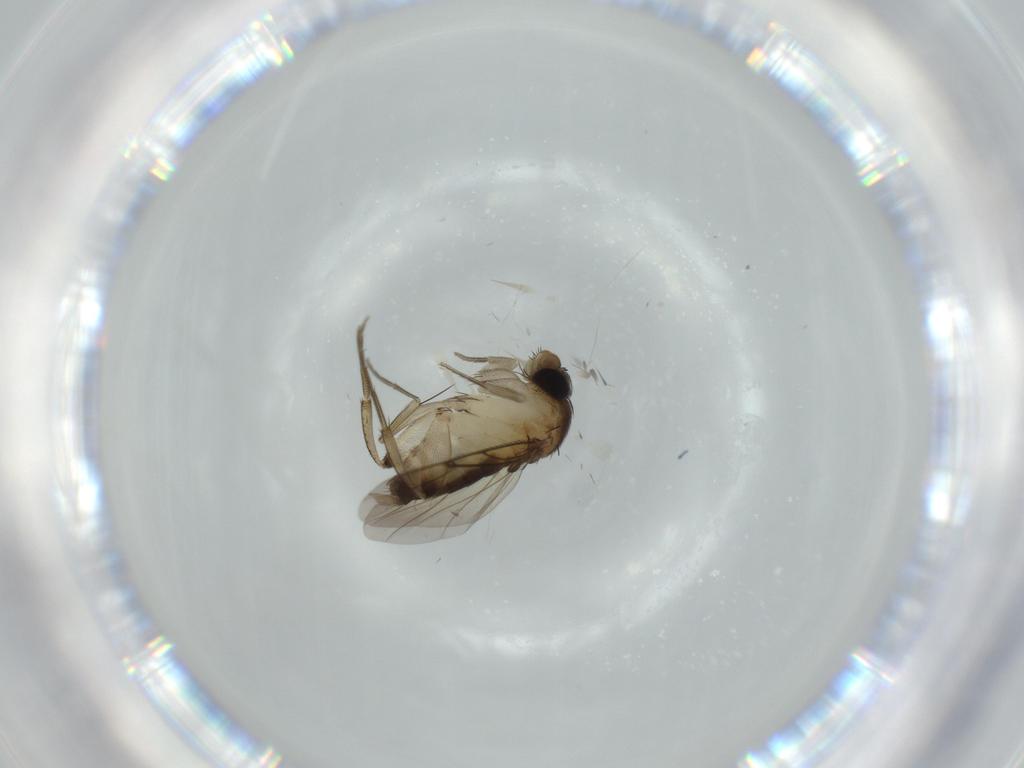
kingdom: Animalia
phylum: Arthropoda
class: Insecta
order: Diptera
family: Phoridae
